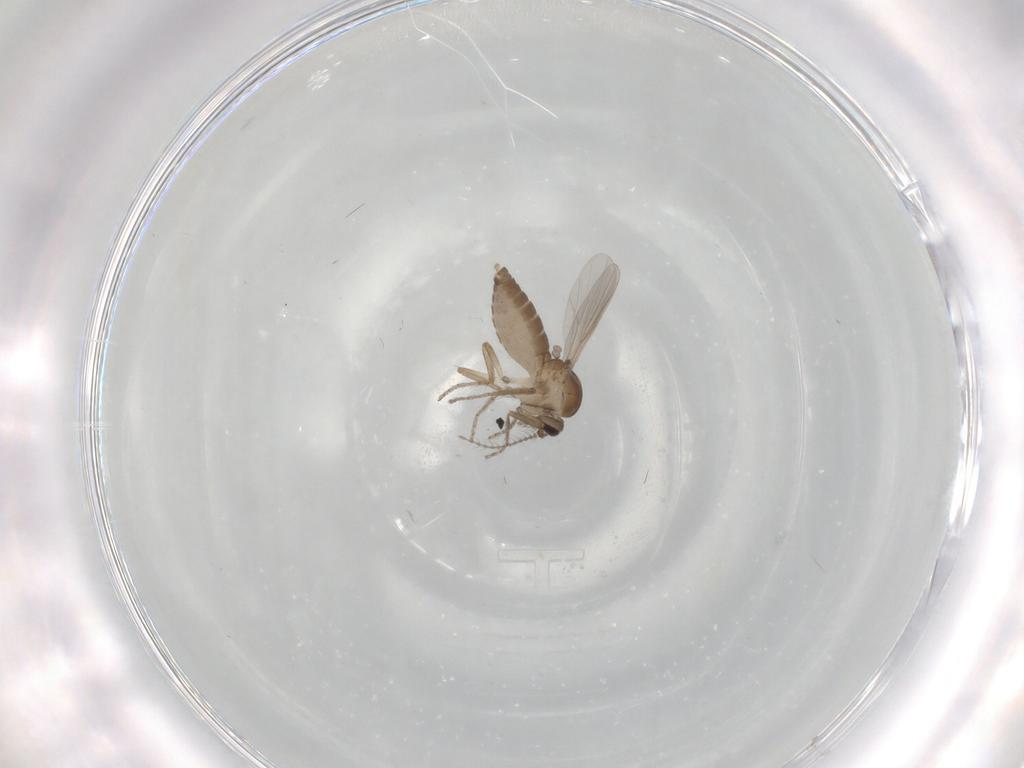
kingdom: Animalia
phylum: Arthropoda
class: Insecta
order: Diptera
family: Ceratopogonidae
